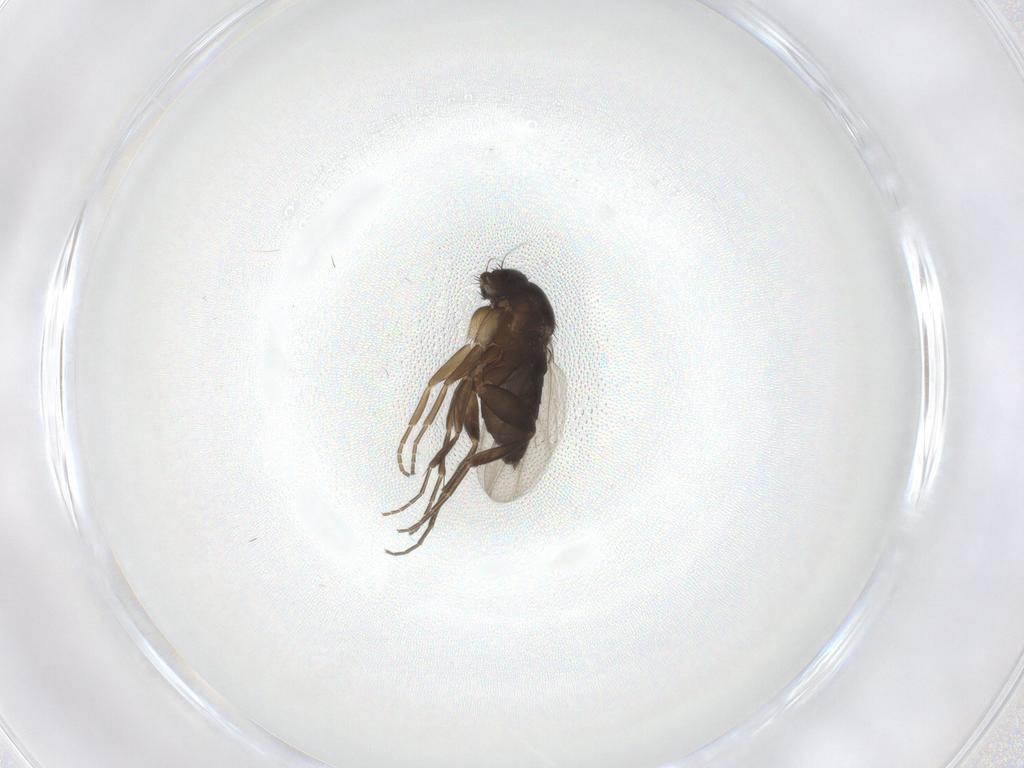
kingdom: Animalia
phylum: Arthropoda
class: Insecta
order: Diptera
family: Phoridae
